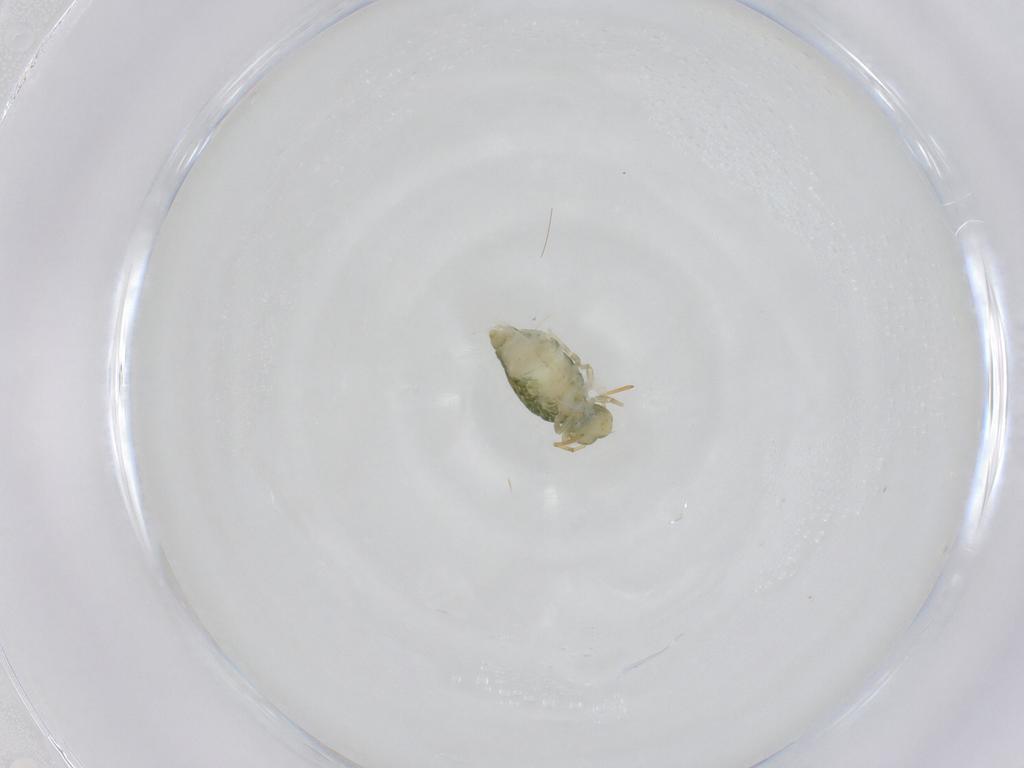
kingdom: Animalia
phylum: Arthropoda
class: Collembola
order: Symphypleona
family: Katiannidae
